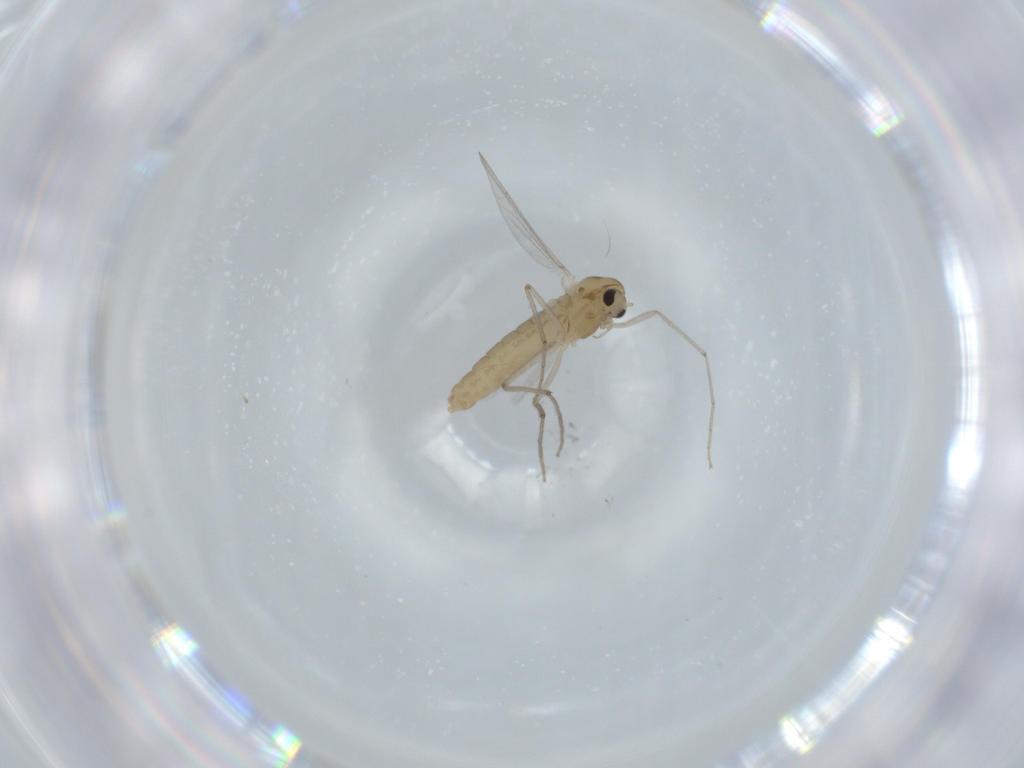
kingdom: Animalia
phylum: Arthropoda
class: Insecta
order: Diptera
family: Chironomidae
